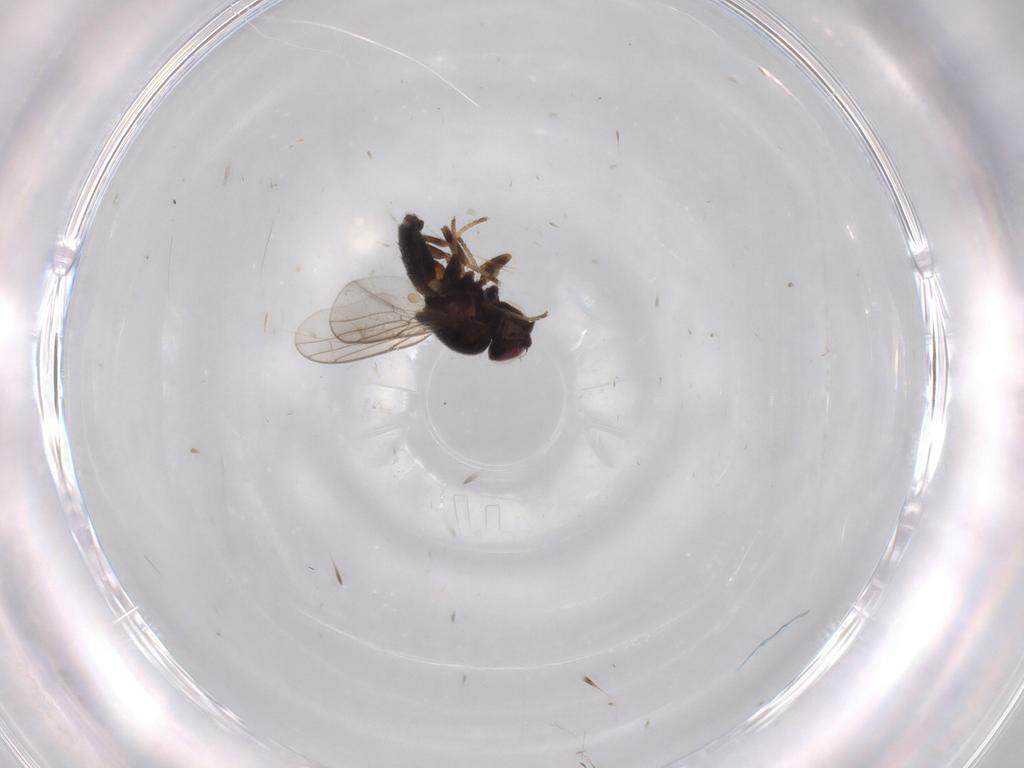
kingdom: Animalia
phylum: Arthropoda
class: Insecta
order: Diptera
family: Chloropidae
